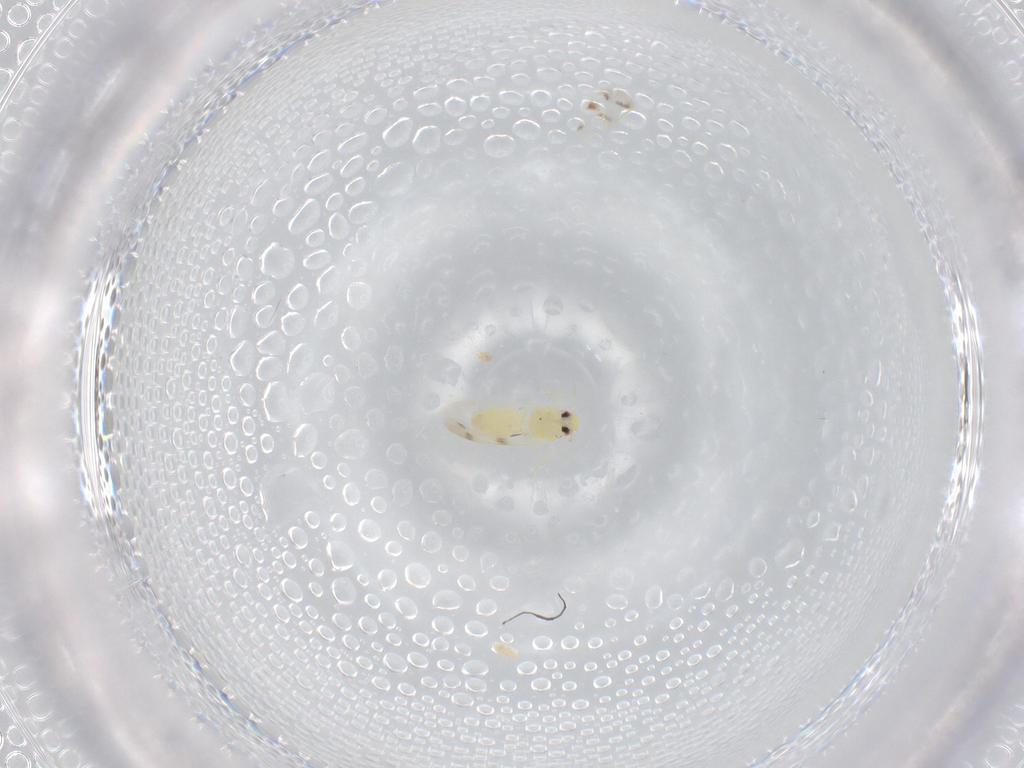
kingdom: Animalia
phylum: Arthropoda
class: Insecta
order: Hemiptera
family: Aleyrodidae
